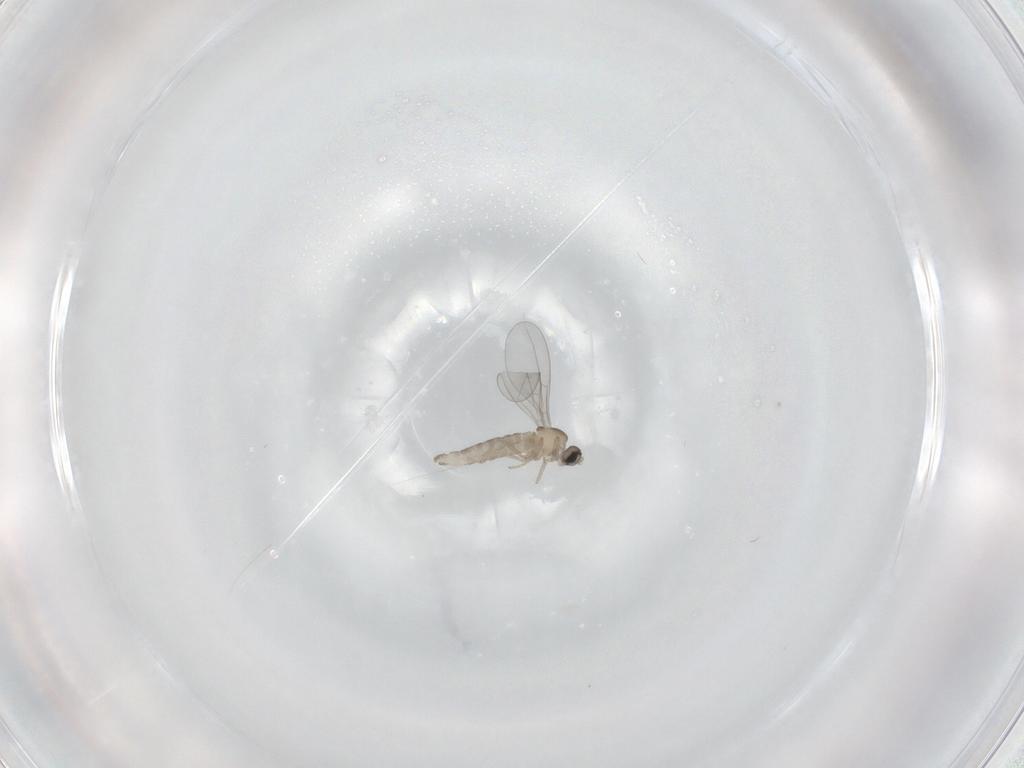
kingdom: Animalia
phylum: Arthropoda
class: Insecta
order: Diptera
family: Cecidomyiidae
